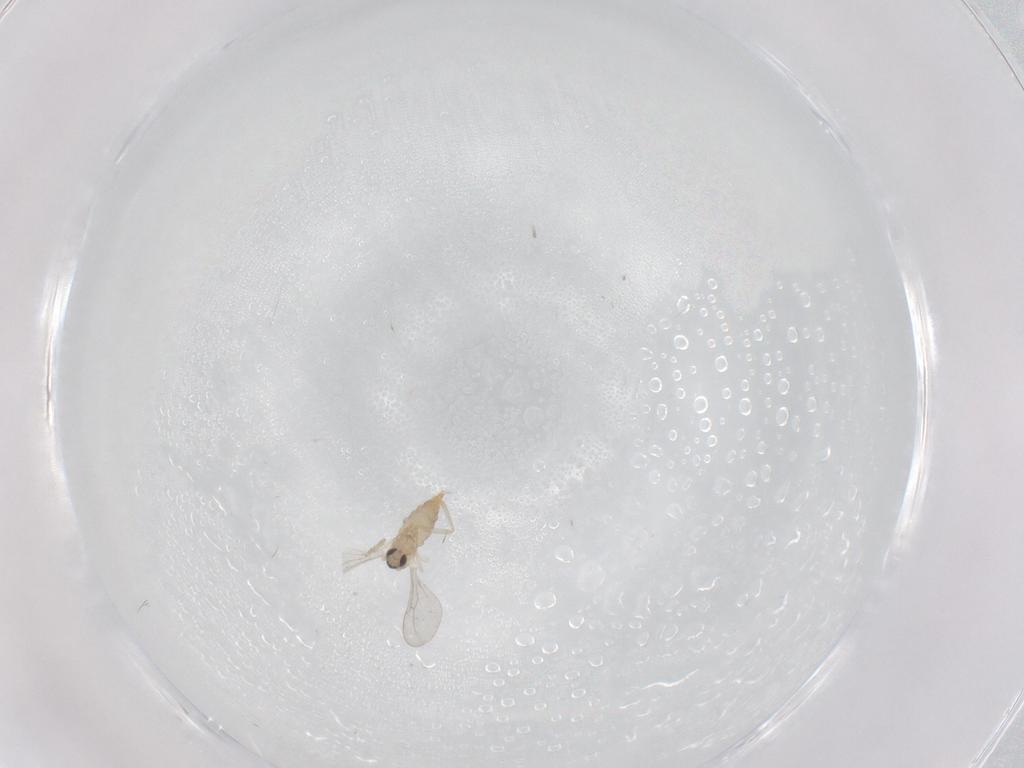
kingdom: Animalia
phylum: Arthropoda
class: Insecta
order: Diptera
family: Cecidomyiidae
